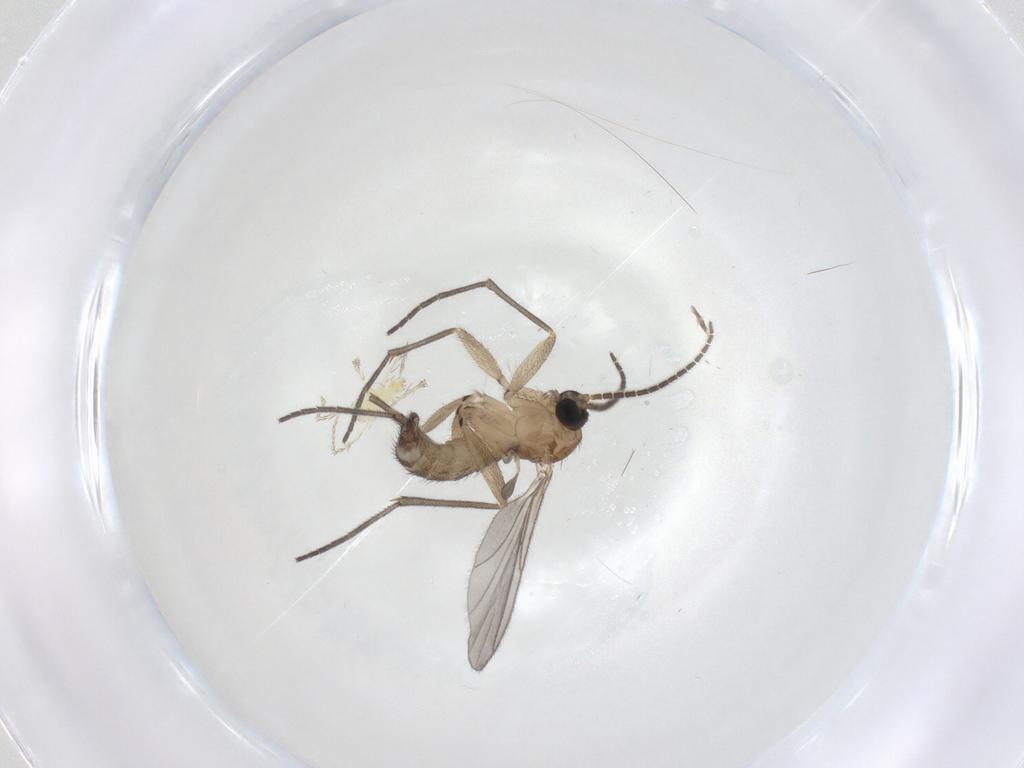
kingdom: Animalia
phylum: Arthropoda
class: Insecta
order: Diptera
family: Sciaridae
